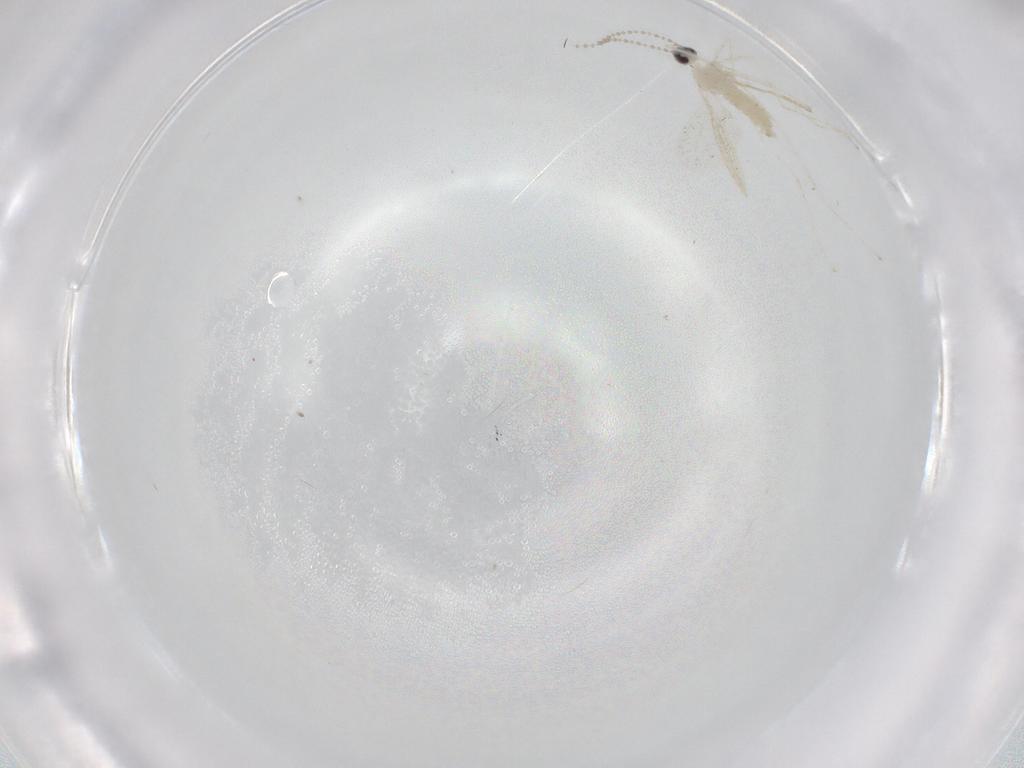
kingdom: Animalia
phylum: Arthropoda
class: Insecta
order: Diptera
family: Cecidomyiidae
